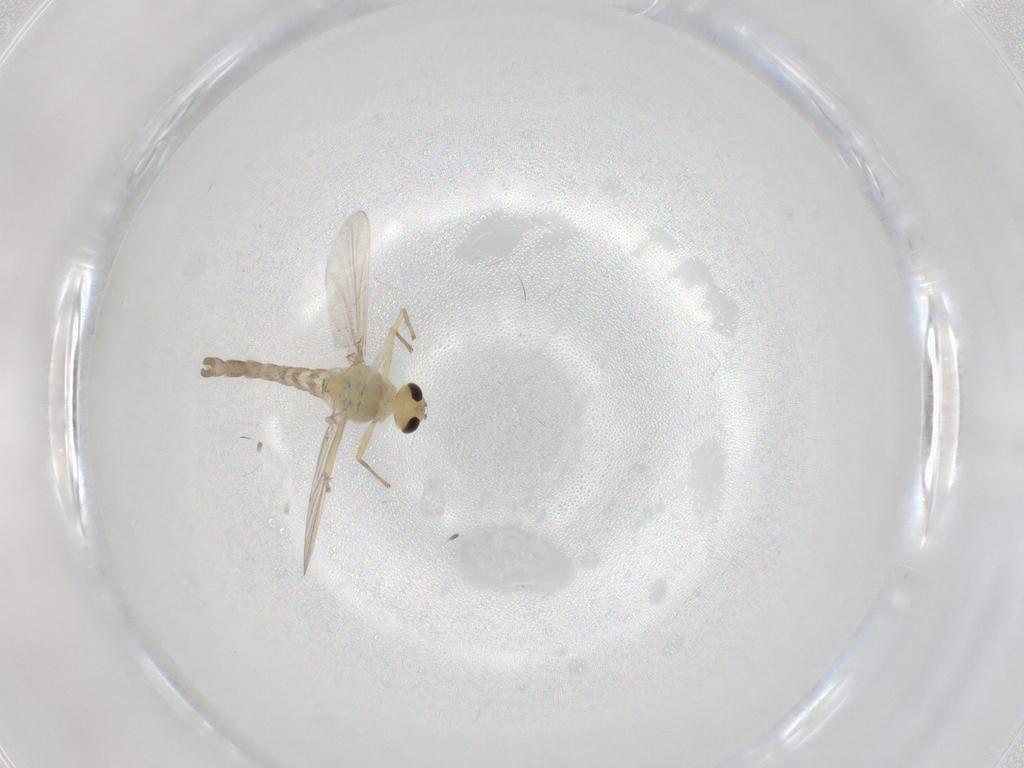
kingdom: Animalia
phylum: Arthropoda
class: Insecta
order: Diptera
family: Chironomidae
